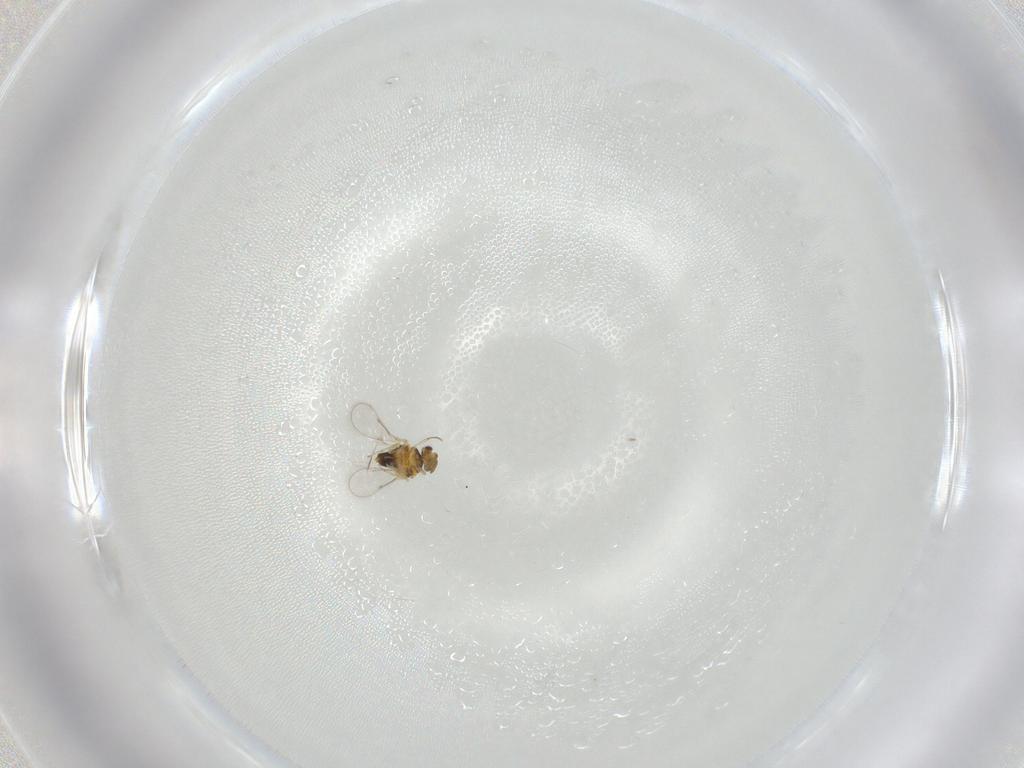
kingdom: Animalia
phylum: Arthropoda
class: Insecta
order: Hymenoptera
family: Aphelinidae
